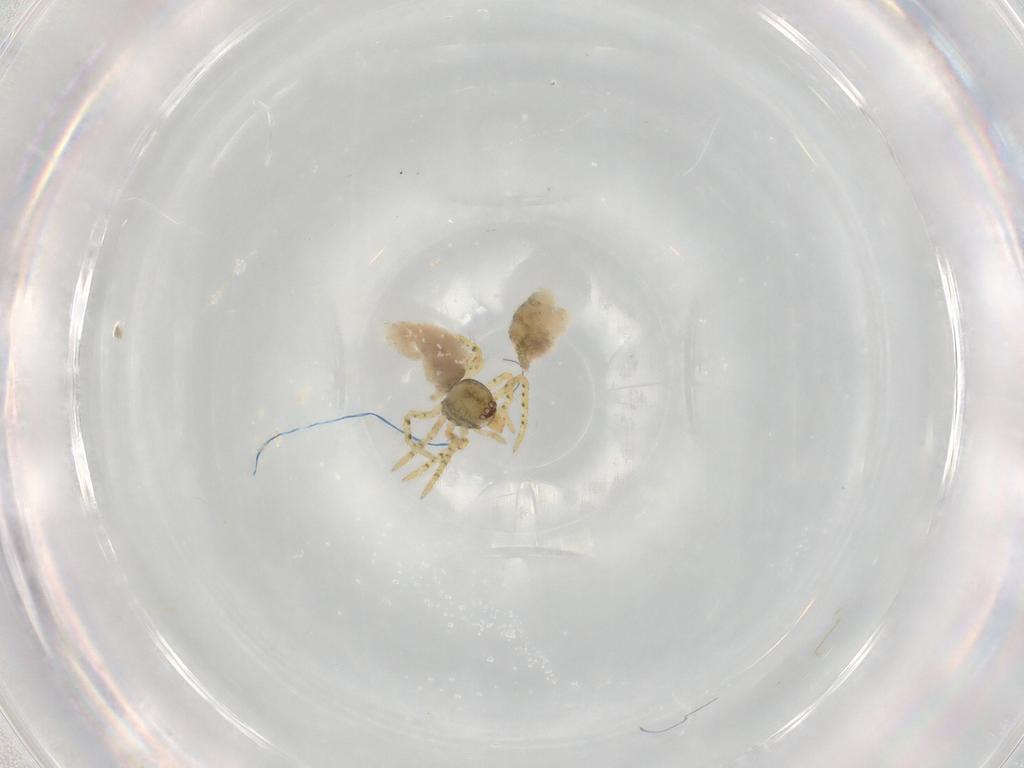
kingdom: Animalia
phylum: Arthropoda
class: Arachnida
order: Araneae
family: Theridiidae
